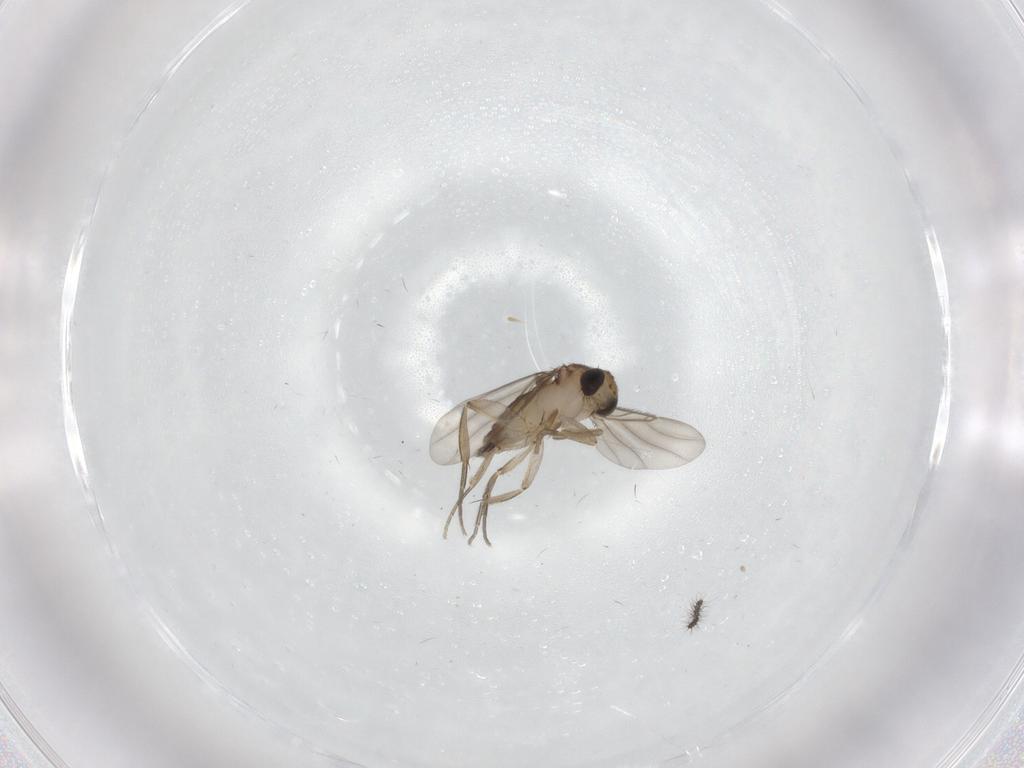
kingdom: Animalia
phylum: Arthropoda
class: Insecta
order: Diptera
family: Phoridae
